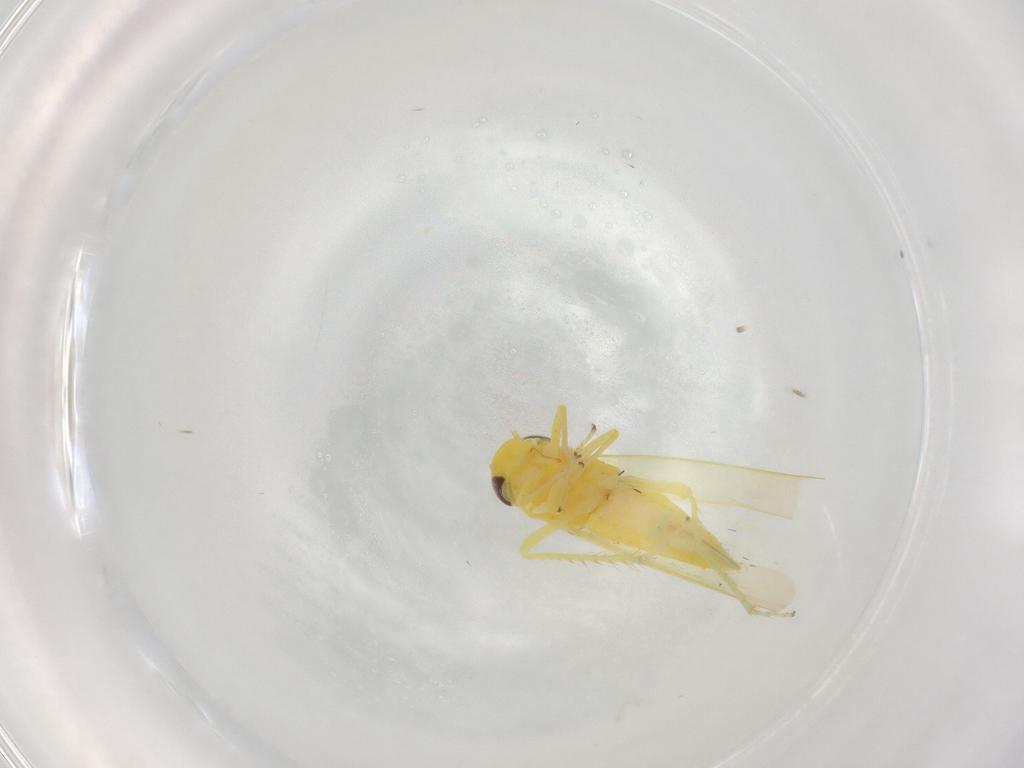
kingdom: Animalia
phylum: Arthropoda
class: Insecta
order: Hemiptera
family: Cicadellidae
